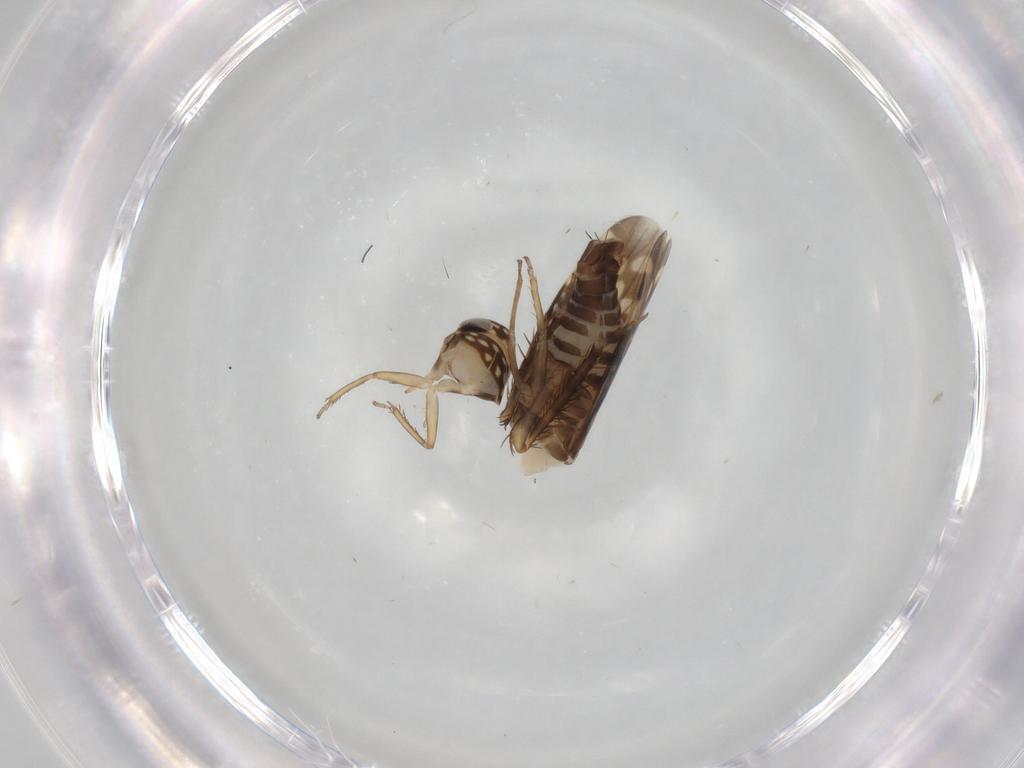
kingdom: Animalia
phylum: Arthropoda
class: Insecta
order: Hemiptera
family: Cicadellidae
